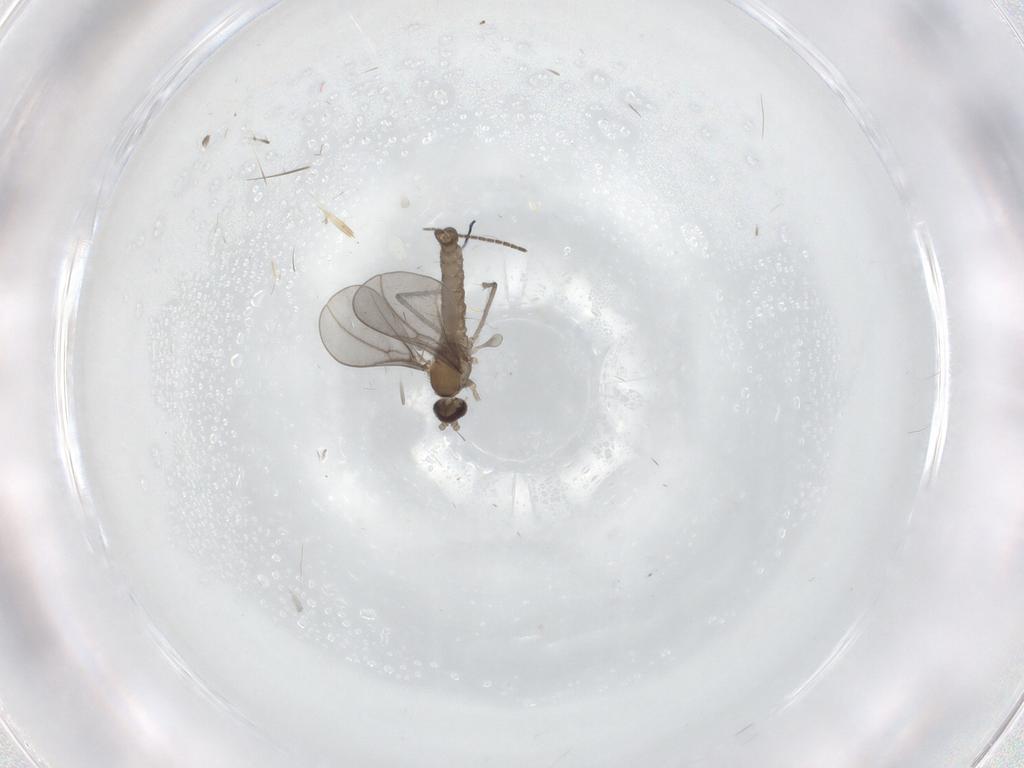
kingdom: Animalia
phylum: Arthropoda
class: Insecta
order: Diptera
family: Cecidomyiidae
